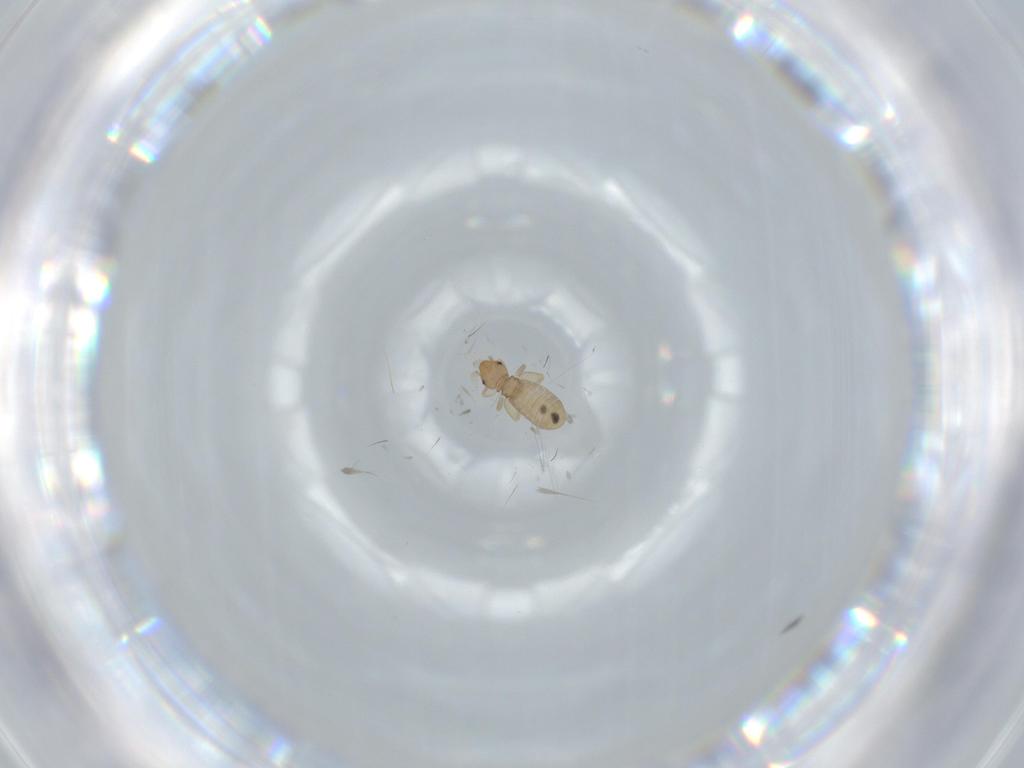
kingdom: Animalia
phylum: Arthropoda
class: Insecta
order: Psocodea
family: Liposcelididae
